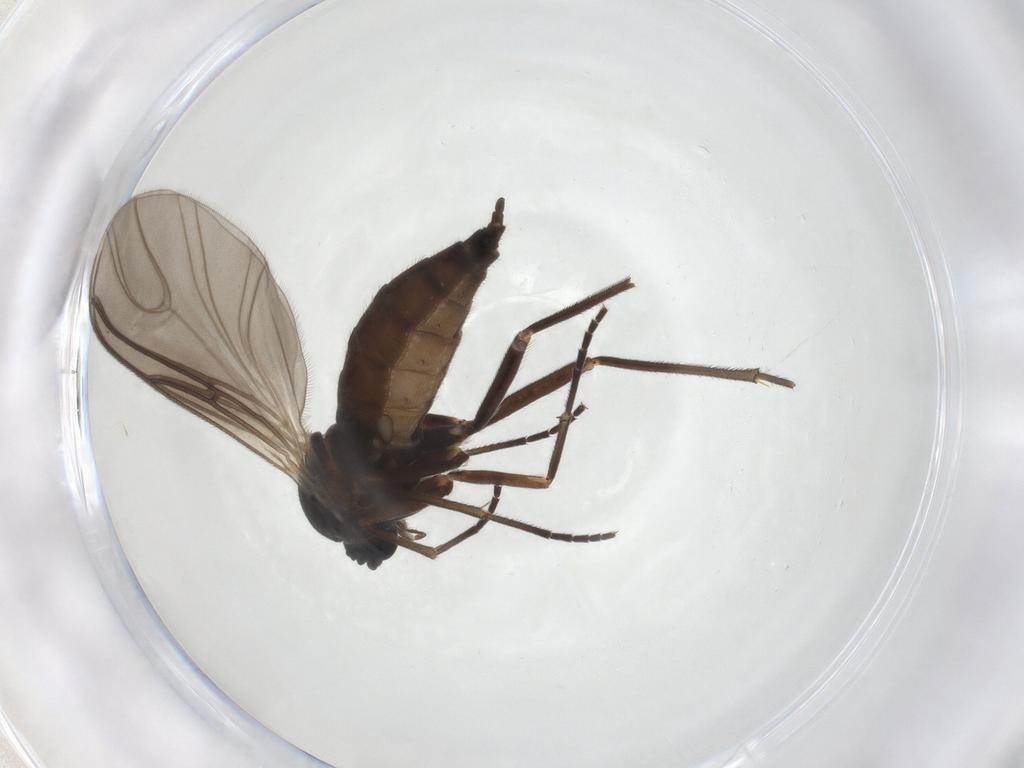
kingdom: Animalia
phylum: Arthropoda
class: Insecta
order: Diptera
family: Sciaridae
